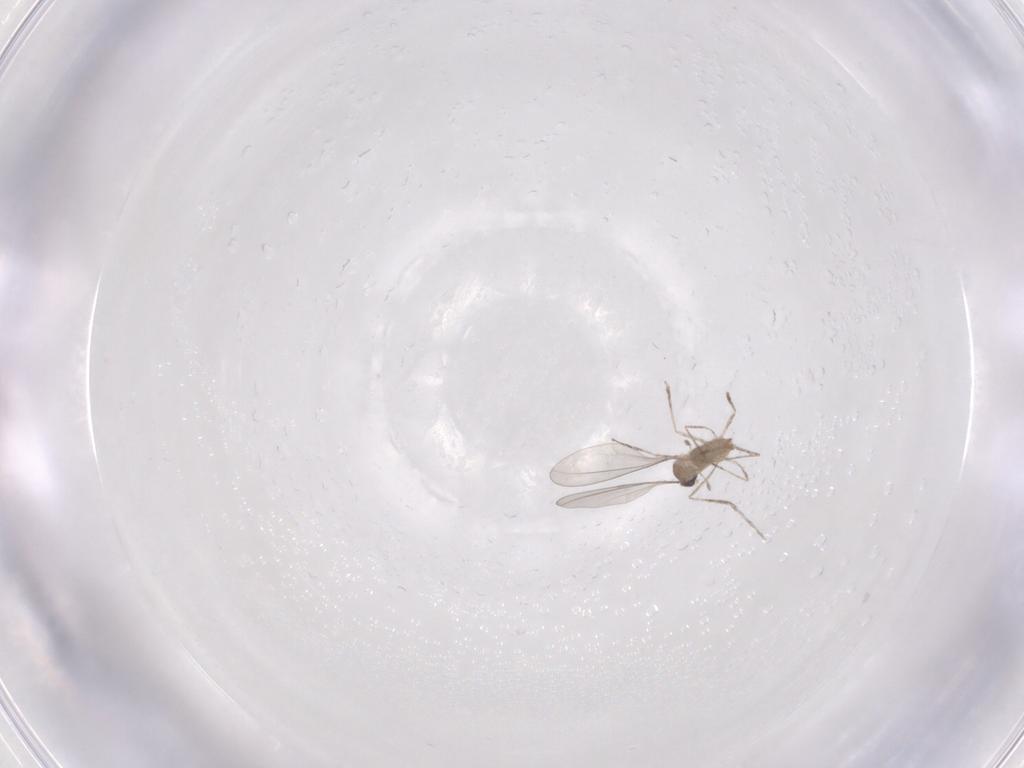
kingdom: Animalia
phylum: Arthropoda
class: Insecta
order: Diptera
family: Cecidomyiidae
